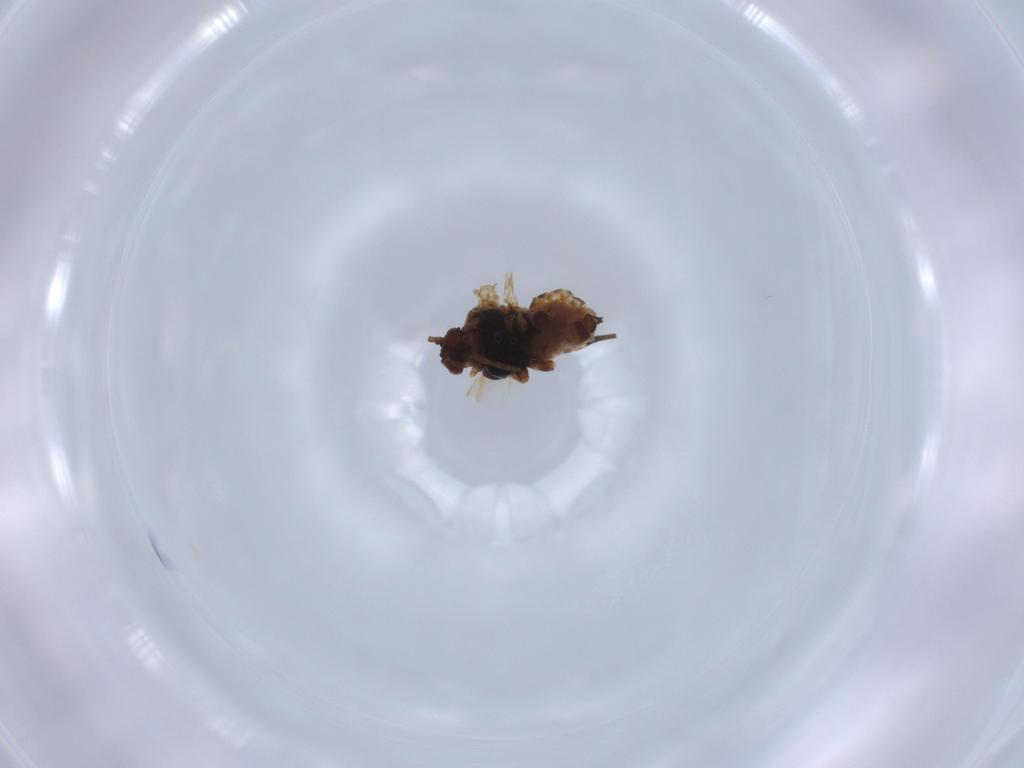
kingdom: Animalia
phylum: Arthropoda
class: Insecta
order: Hemiptera
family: Aphididae
